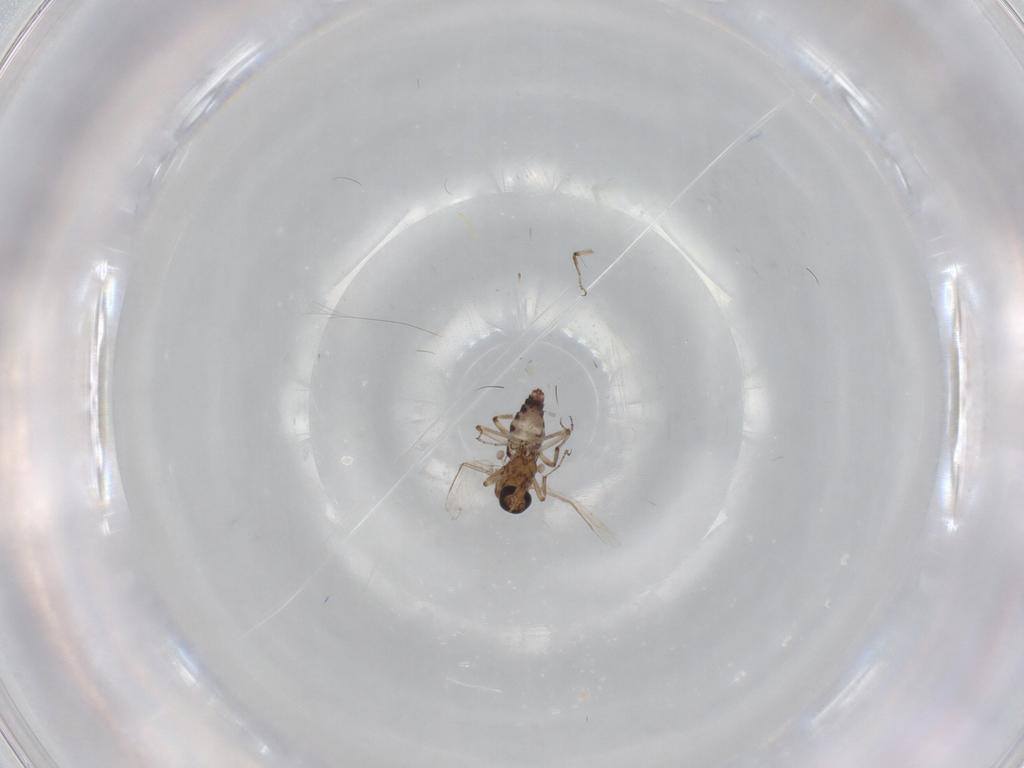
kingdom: Animalia
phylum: Arthropoda
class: Insecta
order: Diptera
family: Ceratopogonidae
